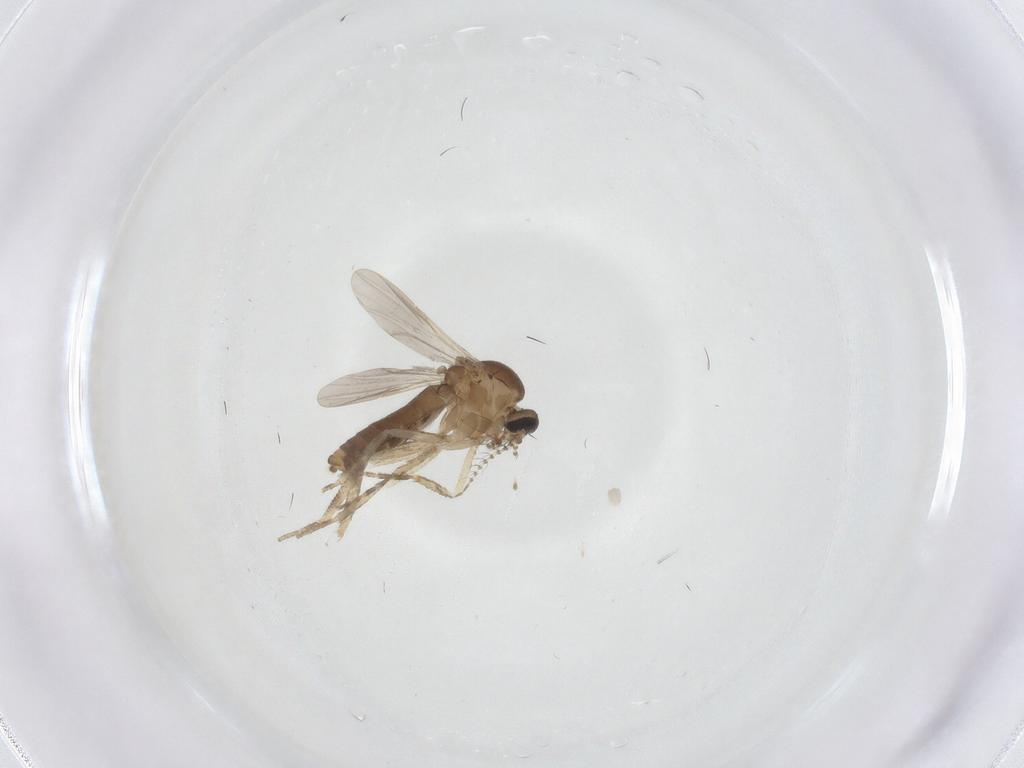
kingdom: Animalia
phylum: Arthropoda
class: Insecta
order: Diptera
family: Ceratopogonidae
